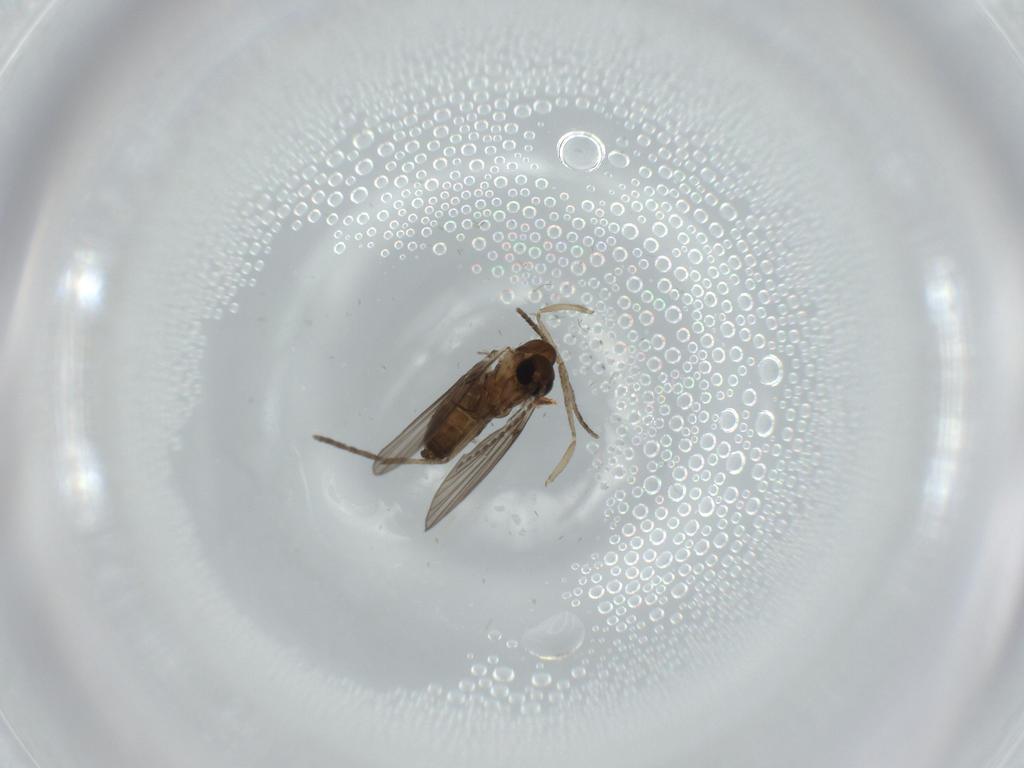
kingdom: Animalia
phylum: Arthropoda
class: Insecta
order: Diptera
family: Psychodidae
